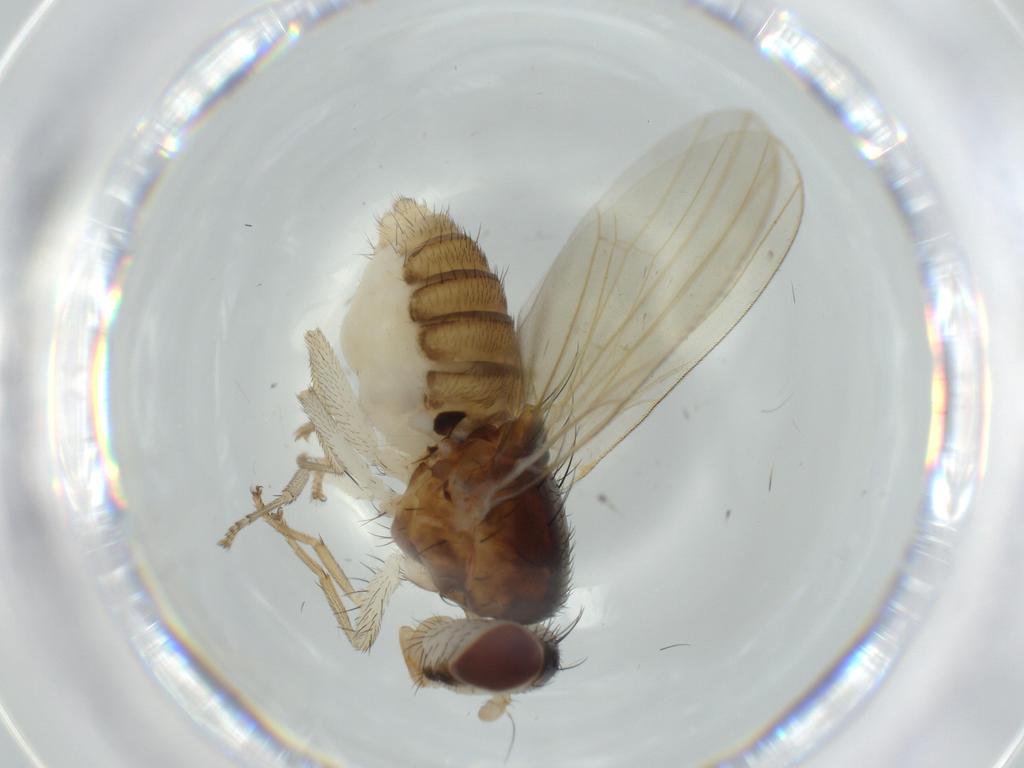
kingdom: Animalia
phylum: Arthropoda
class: Insecta
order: Diptera
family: Lauxaniidae
